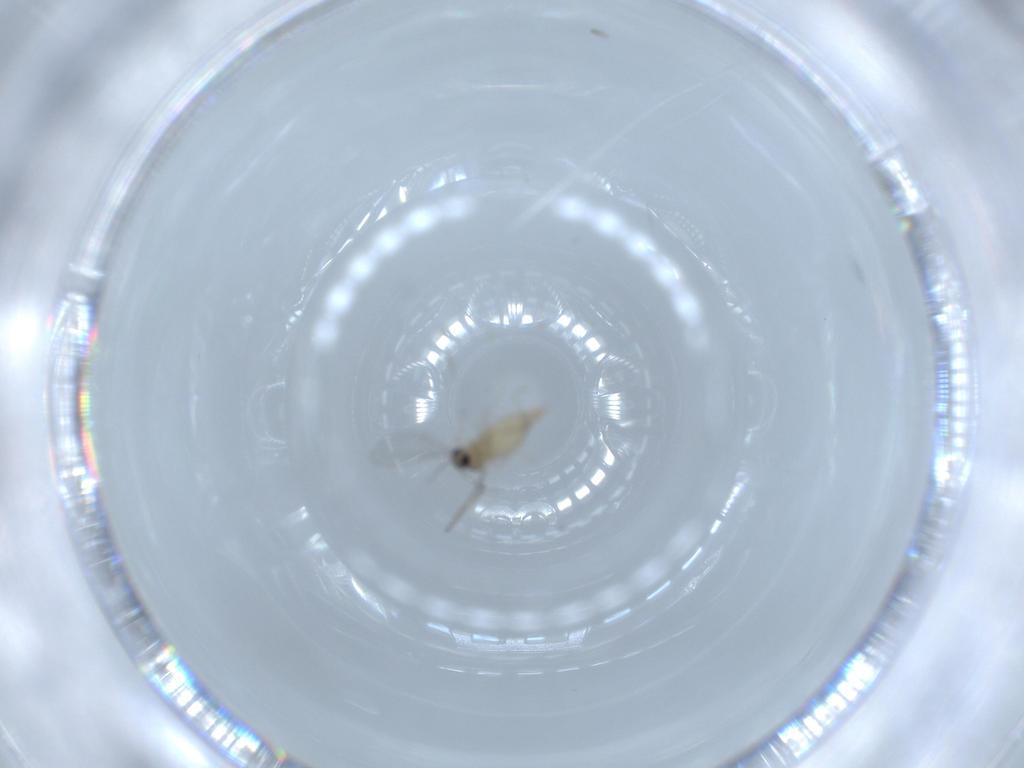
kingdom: Animalia
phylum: Arthropoda
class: Insecta
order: Diptera
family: Cecidomyiidae
